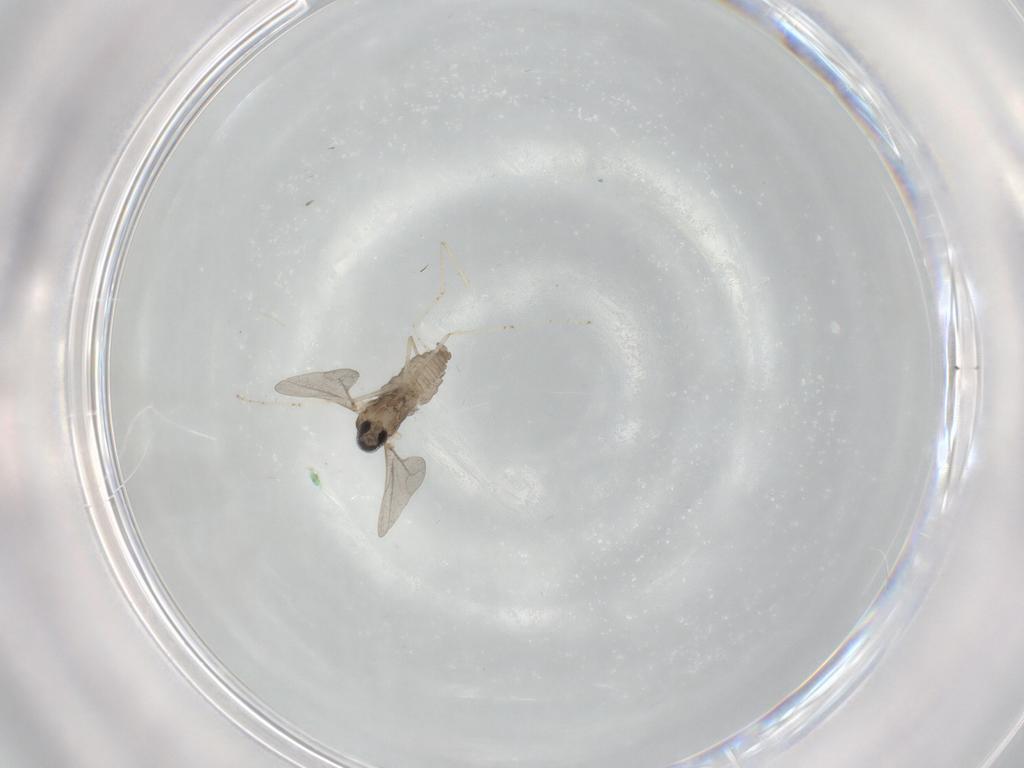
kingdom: Animalia
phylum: Arthropoda
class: Insecta
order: Diptera
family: Cecidomyiidae
